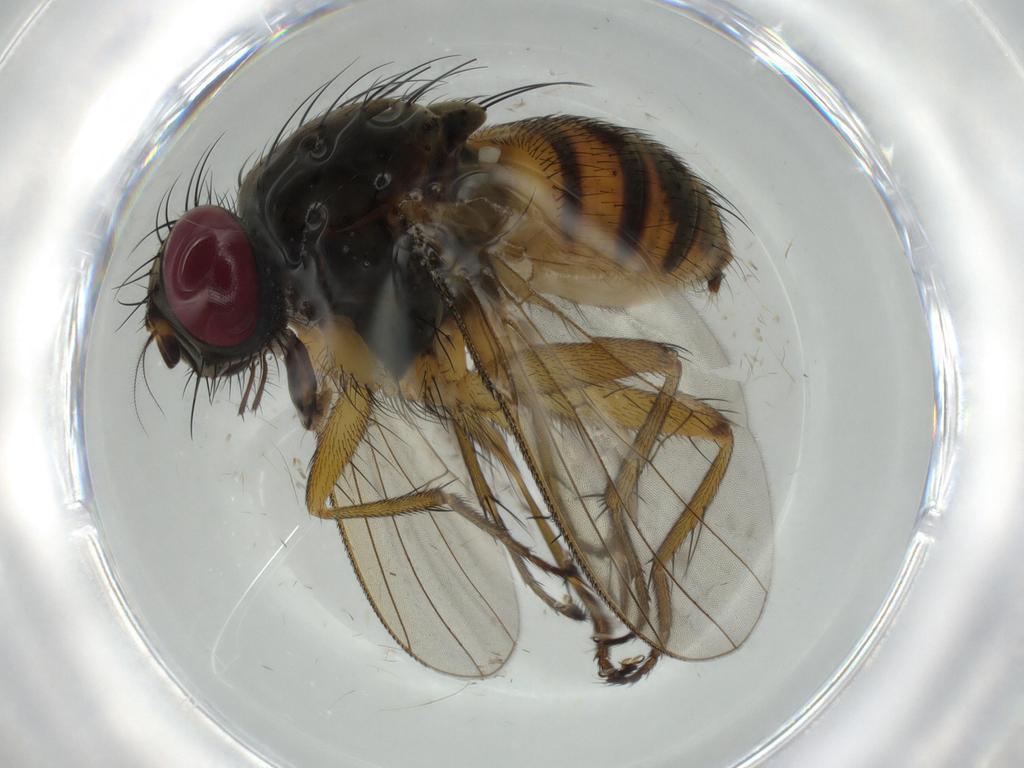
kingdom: Animalia
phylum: Arthropoda
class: Insecta
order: Diptera
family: Muscidae
